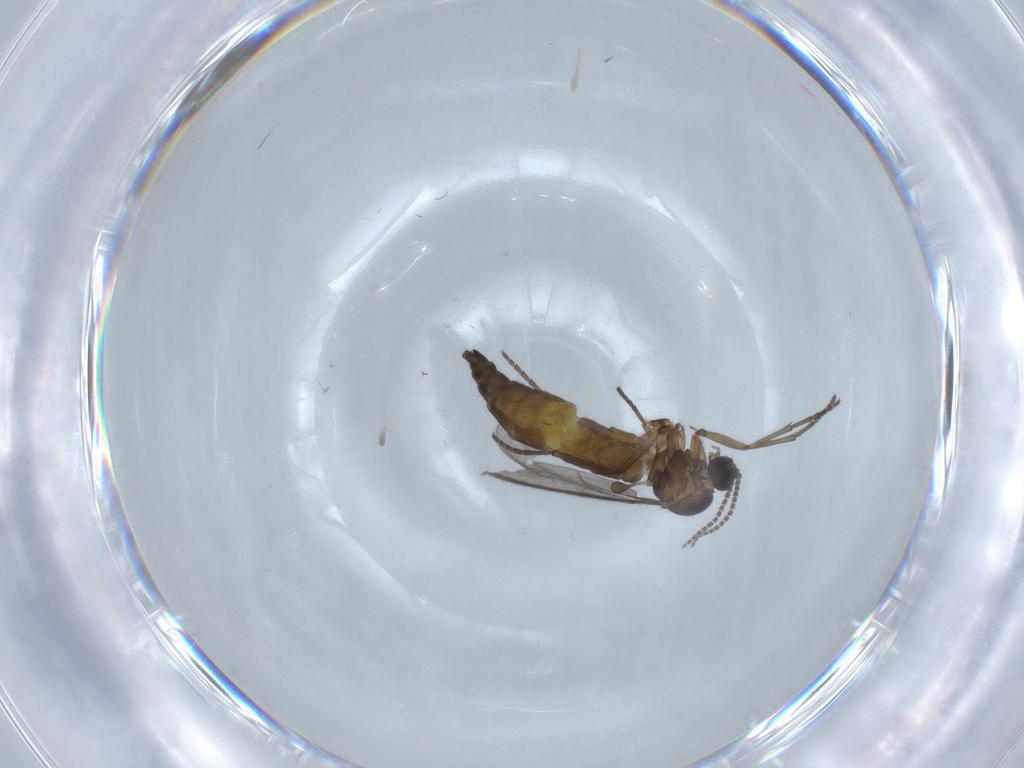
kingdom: Animalia
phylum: Arthropoda
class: Insecta
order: Diptera
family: Sciaridae
